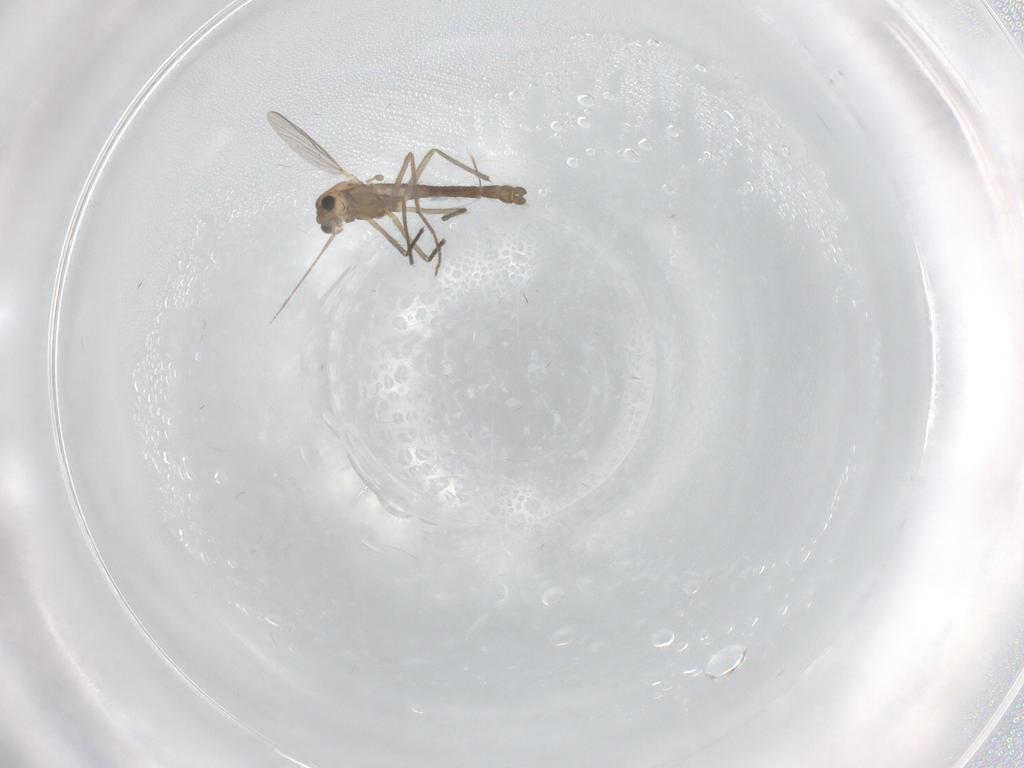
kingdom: Animalia
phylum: Arthropoda
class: Insecta
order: Diptera
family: Chironomidae
